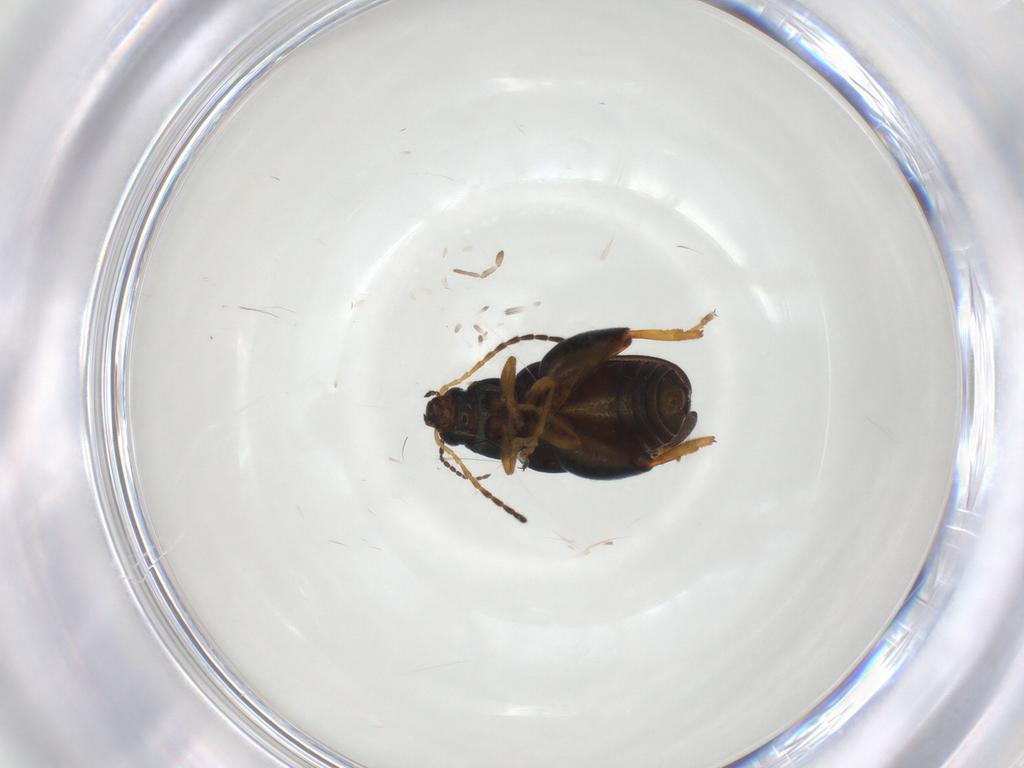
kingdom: Animalia
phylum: Arthropoda
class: Insecta
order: Coleoptera
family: Chrysomelidae
